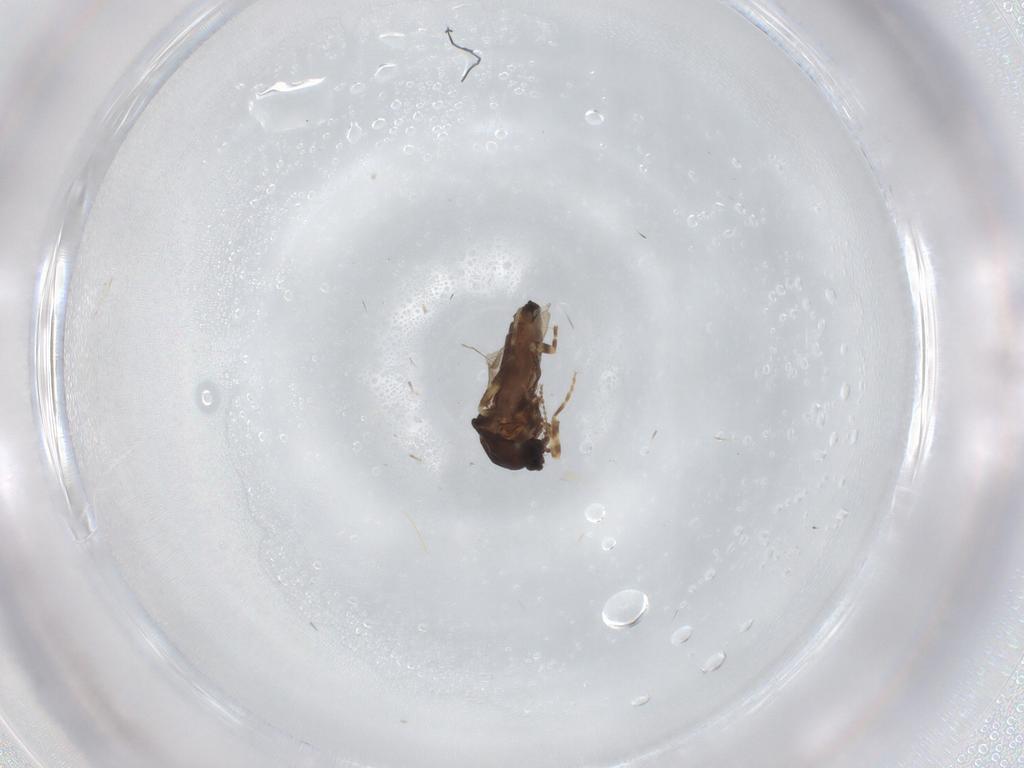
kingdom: Animalia
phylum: Arthropoda
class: Insecta
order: Diptera
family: Ceratopogonidae
